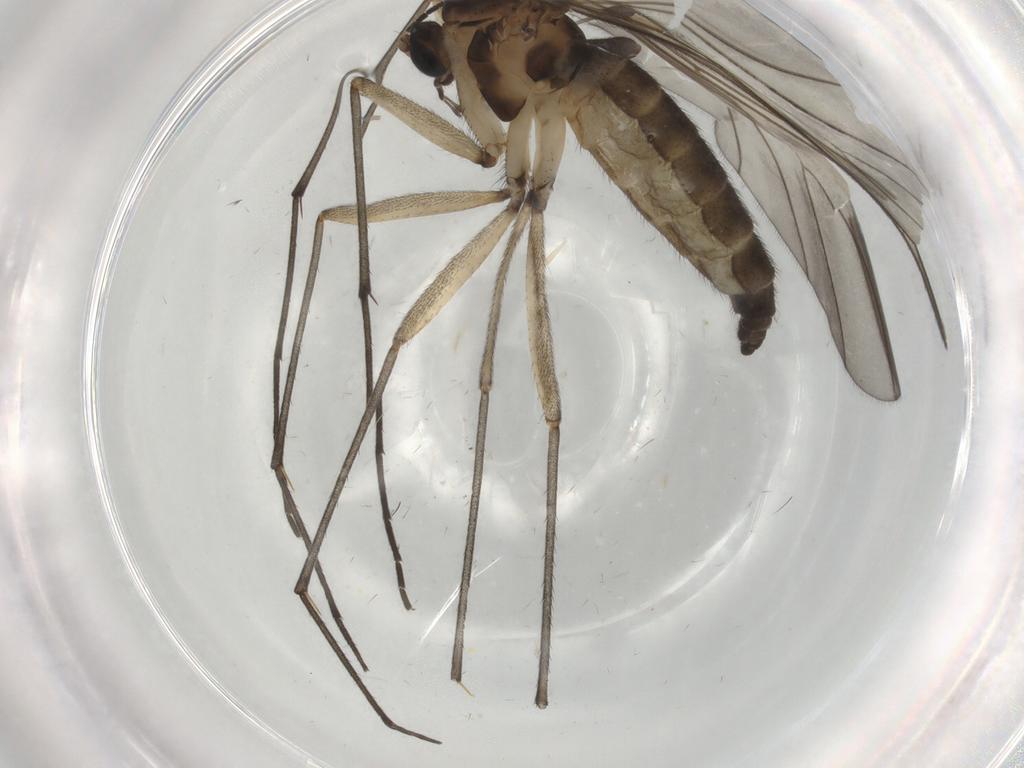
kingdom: Animalia
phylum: Arthropoda
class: Insecta
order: Diptera
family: Sciaridae
